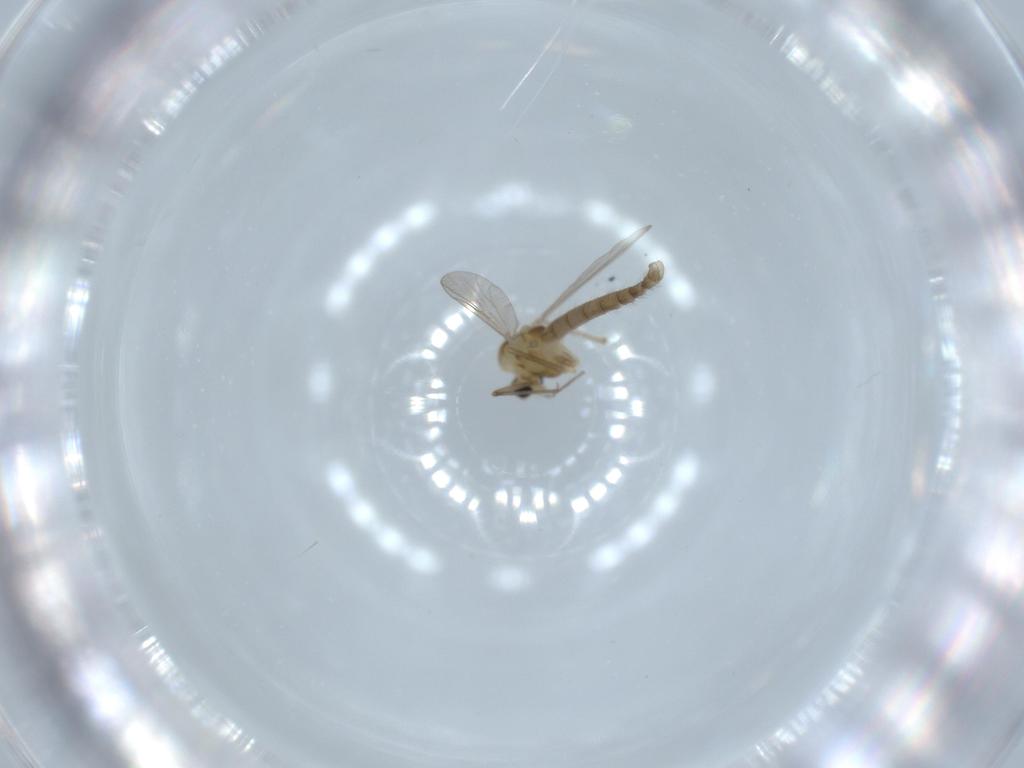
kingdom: Animalia
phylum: Arthropoda
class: Insecta
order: Diptera
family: Chironomidae
